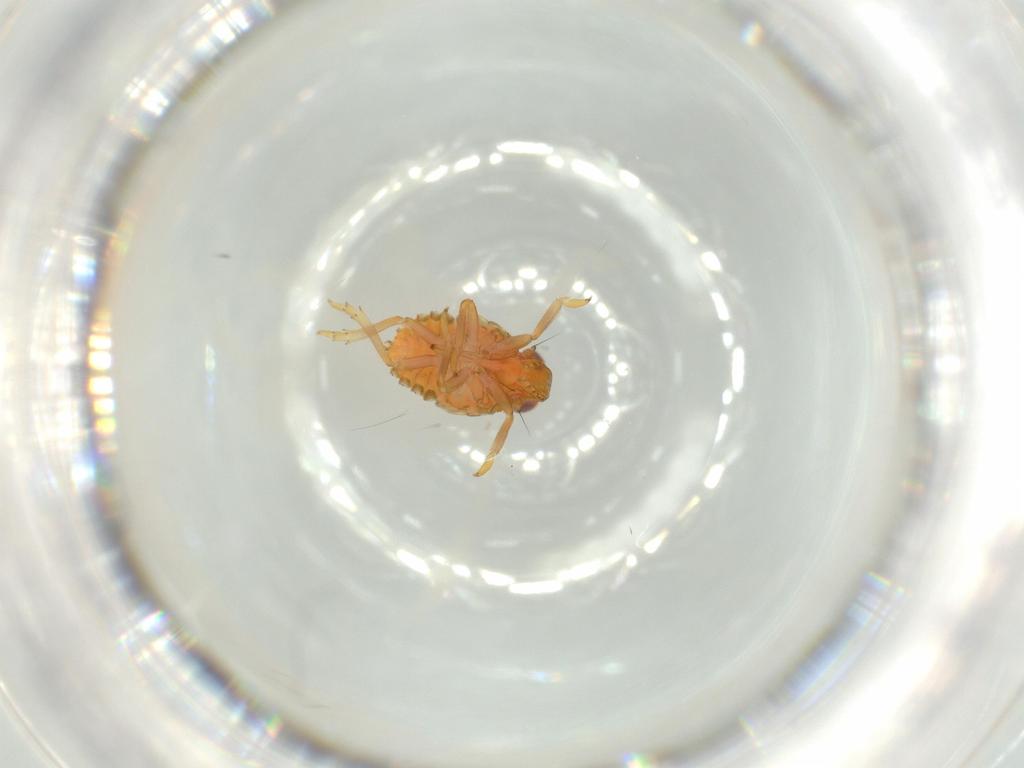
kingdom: Animalia
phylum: Arthropoda
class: Insecta
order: Hemiptera
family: Issidae
